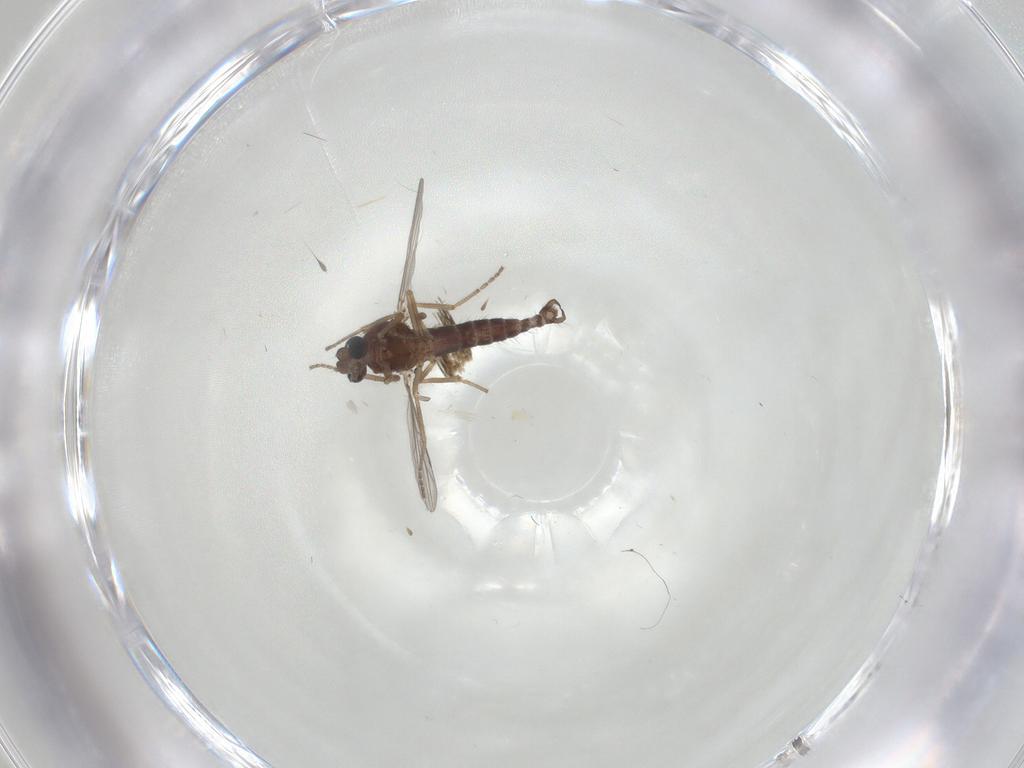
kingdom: Animalia
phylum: Arthropoda
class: Insecta
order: Diptera
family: Ceratopogonidae
